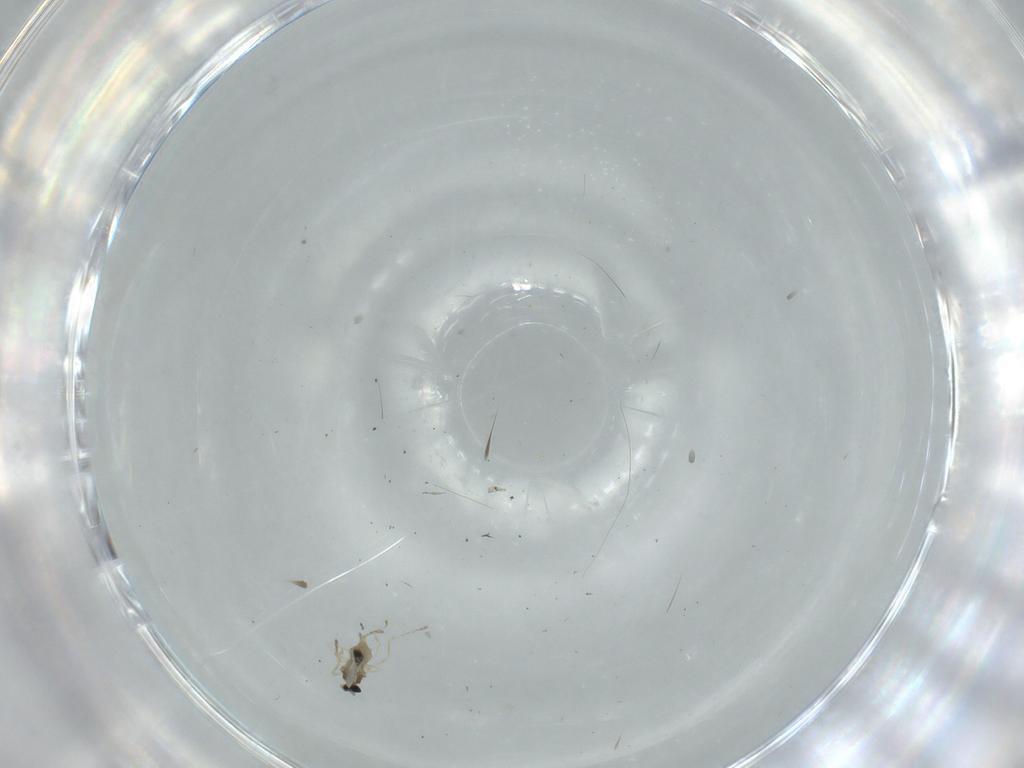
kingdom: Animalia
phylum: Arthropoda
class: Insecta
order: Diptera
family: Cecidomyiidae
